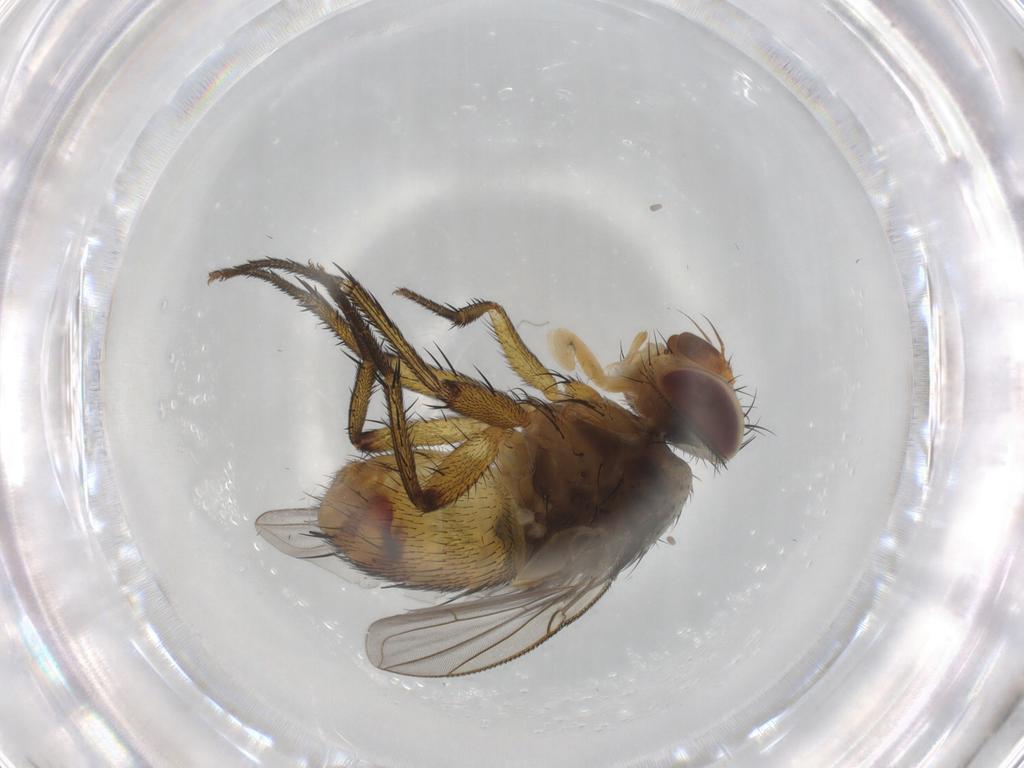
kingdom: Animalia
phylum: Arthropoda
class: Insecta
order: Diptera
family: Tachinidae
